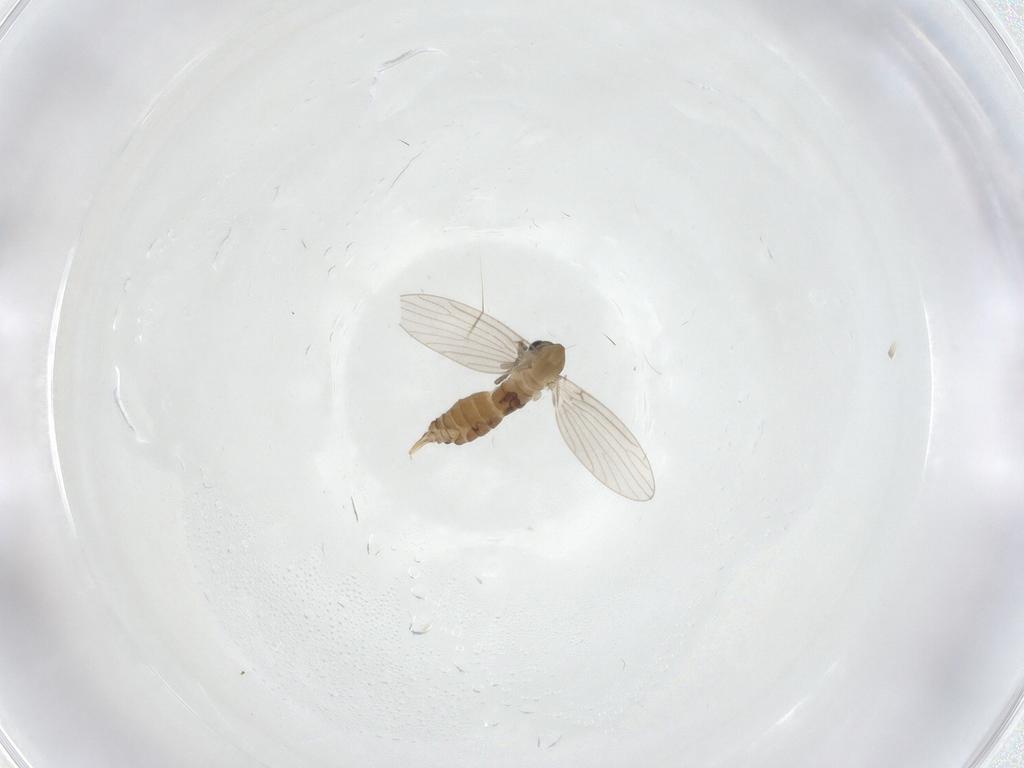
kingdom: Animalia
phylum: Arthropoda
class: Insecta
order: Diptera
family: Psychodidae
